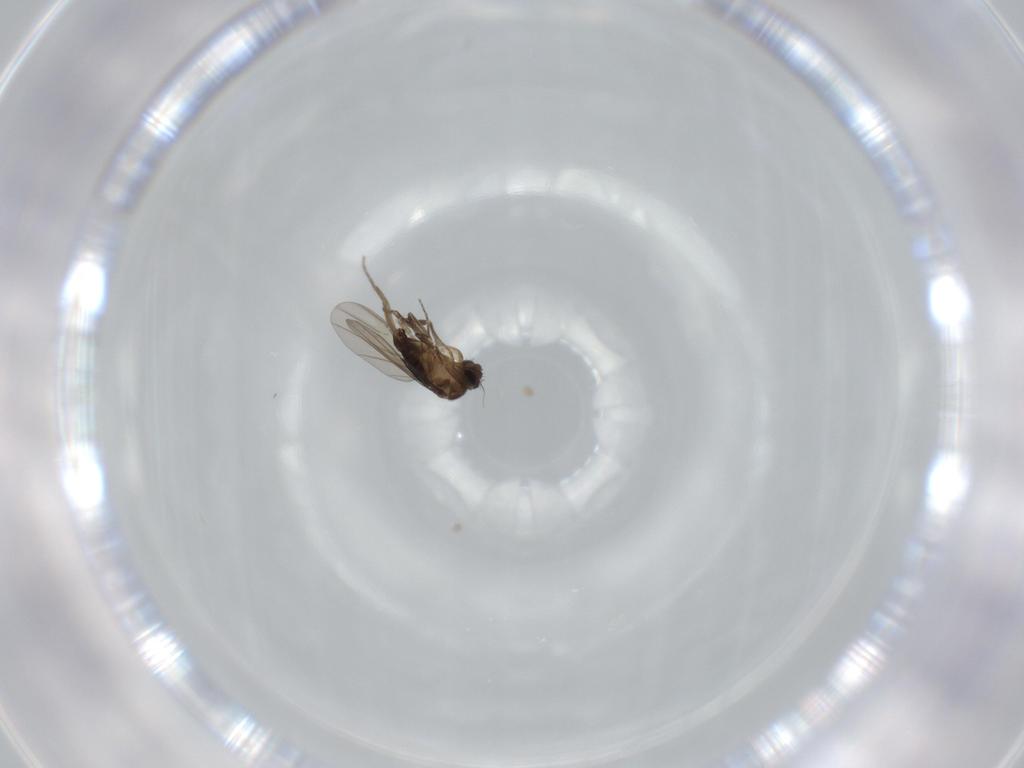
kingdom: Animalia
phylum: Arthropoda
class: Insecta
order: Diptera
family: Phoridae
